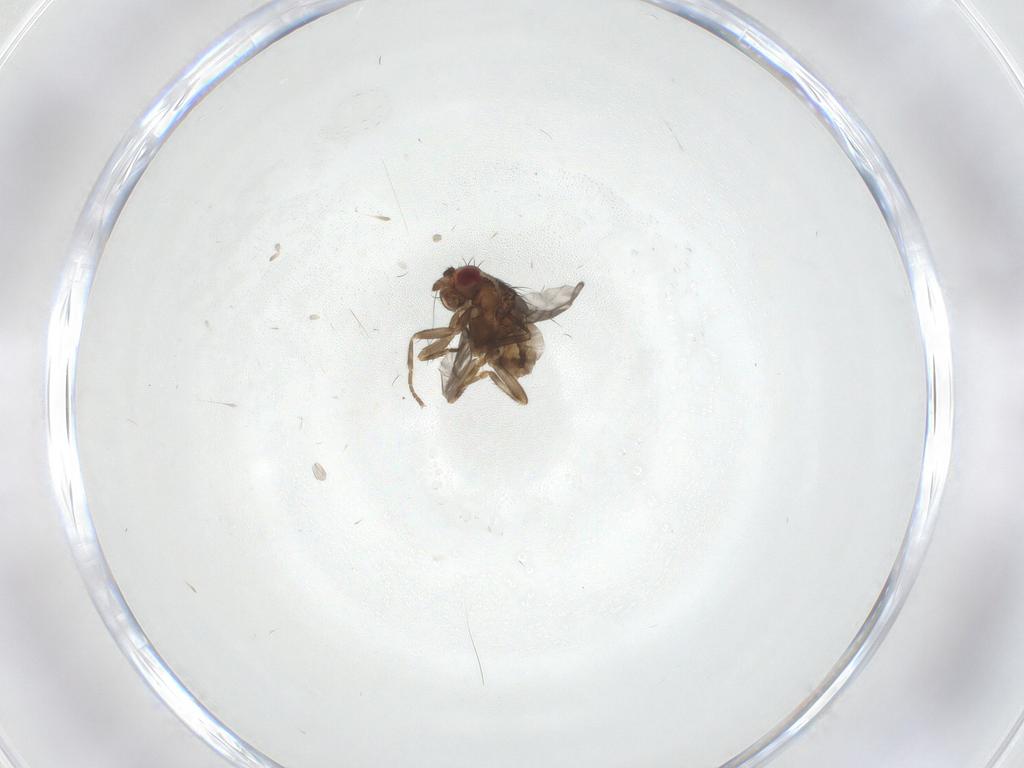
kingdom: Animalia
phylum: Arthropoda
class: Insecta
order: Diptera
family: Sphaeroceridae
